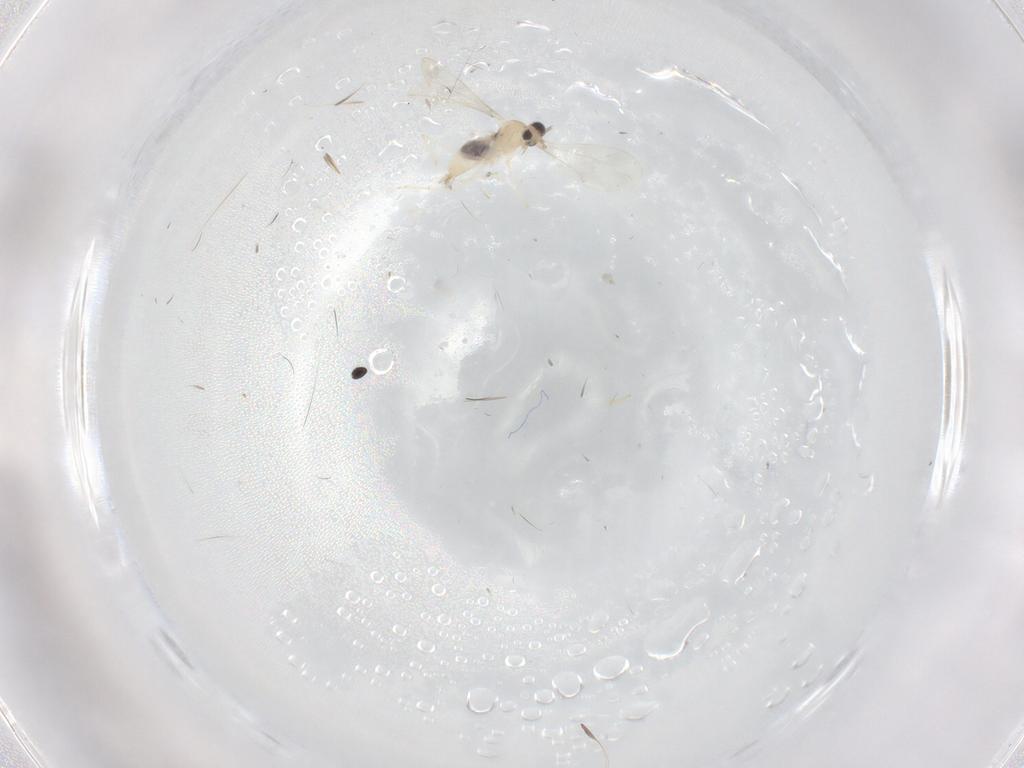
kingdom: Animalia
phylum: Arthropoda
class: Insecta
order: Diptera
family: Cecidomyiidae
